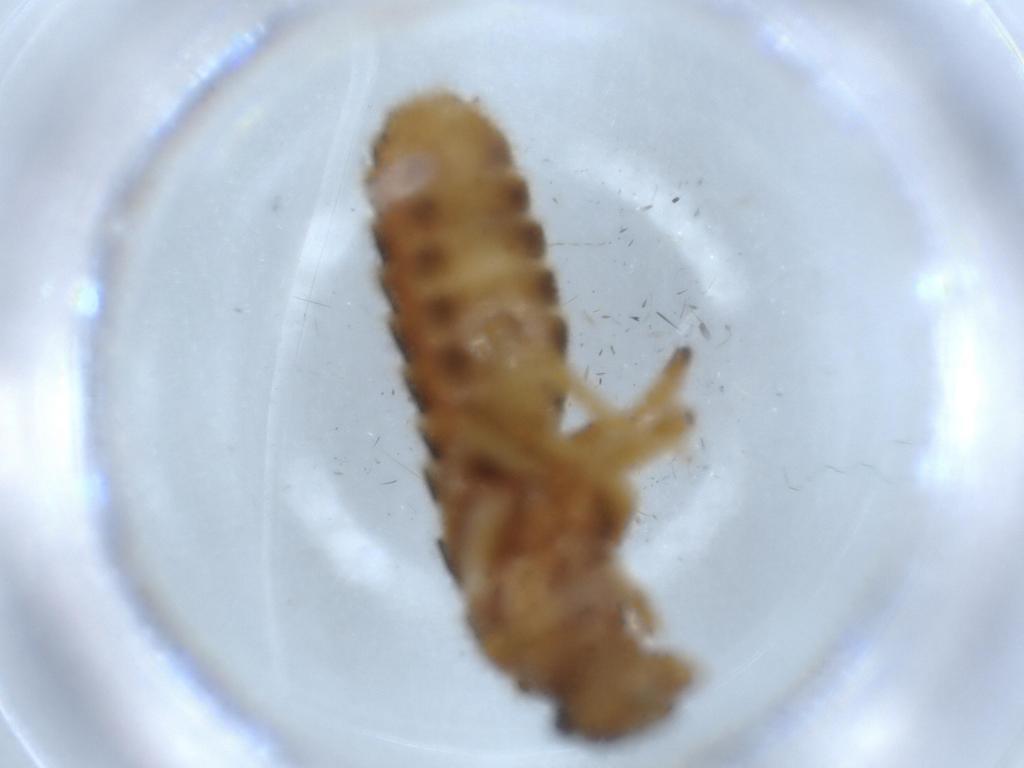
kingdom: Animalia
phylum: Arthropoda
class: Insecta
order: Blattodea
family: Termitidae
